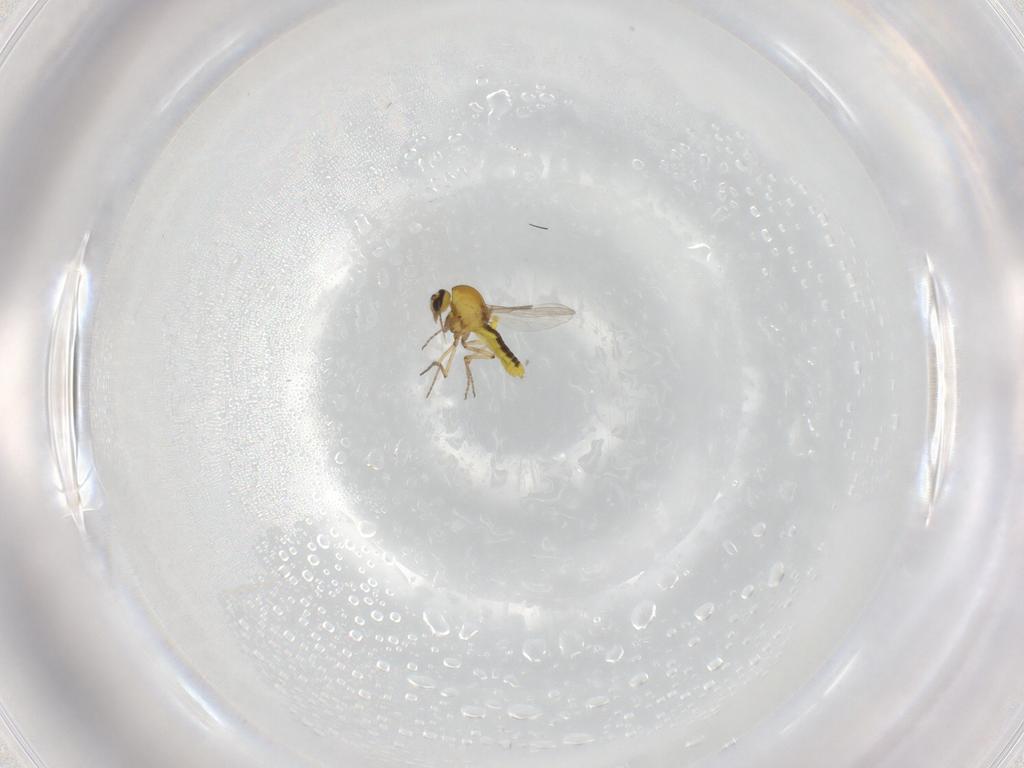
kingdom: Animalia
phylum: Arthropoda
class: Insecta
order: Diptera
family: Ceratopogonidae
